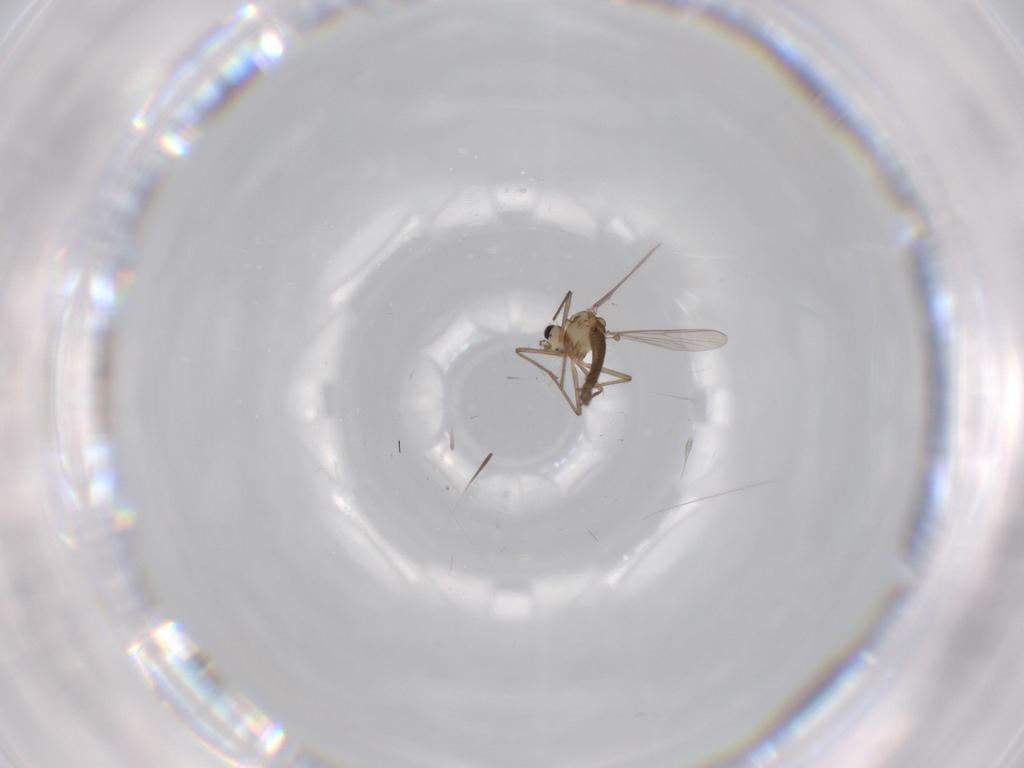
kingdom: Animalia
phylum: Arthropoda
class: Insecta
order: Diptera
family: Chironomidae
